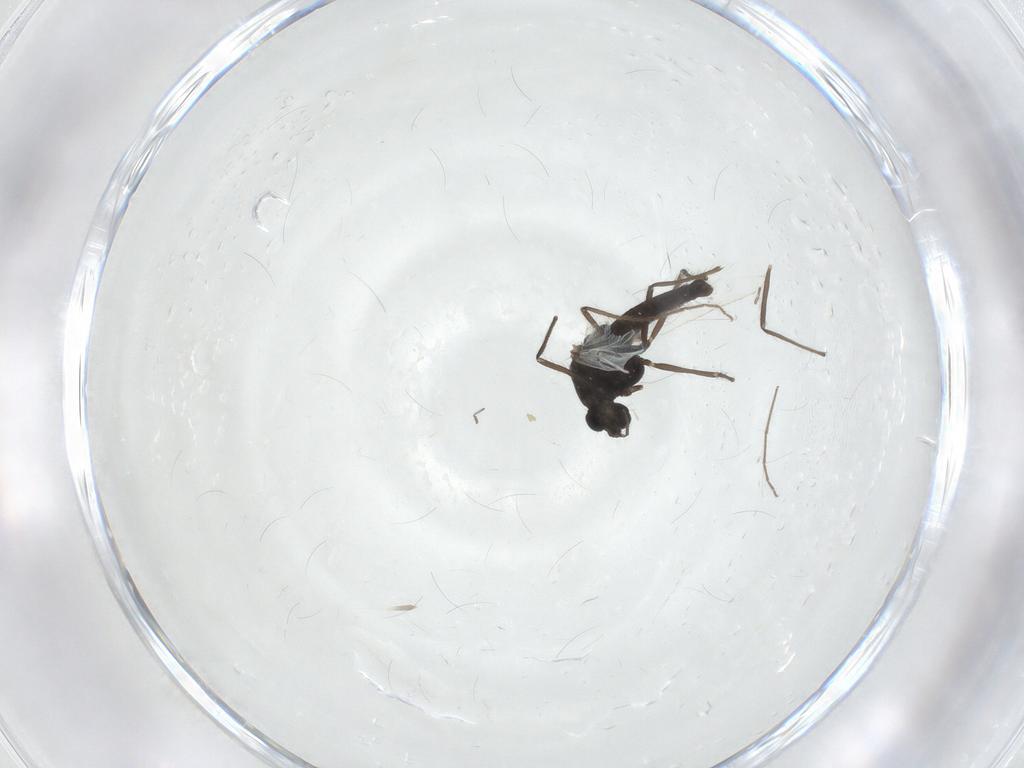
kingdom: Animalia
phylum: Arthropoda
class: Insecta
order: Diptera
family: Chironomidae
